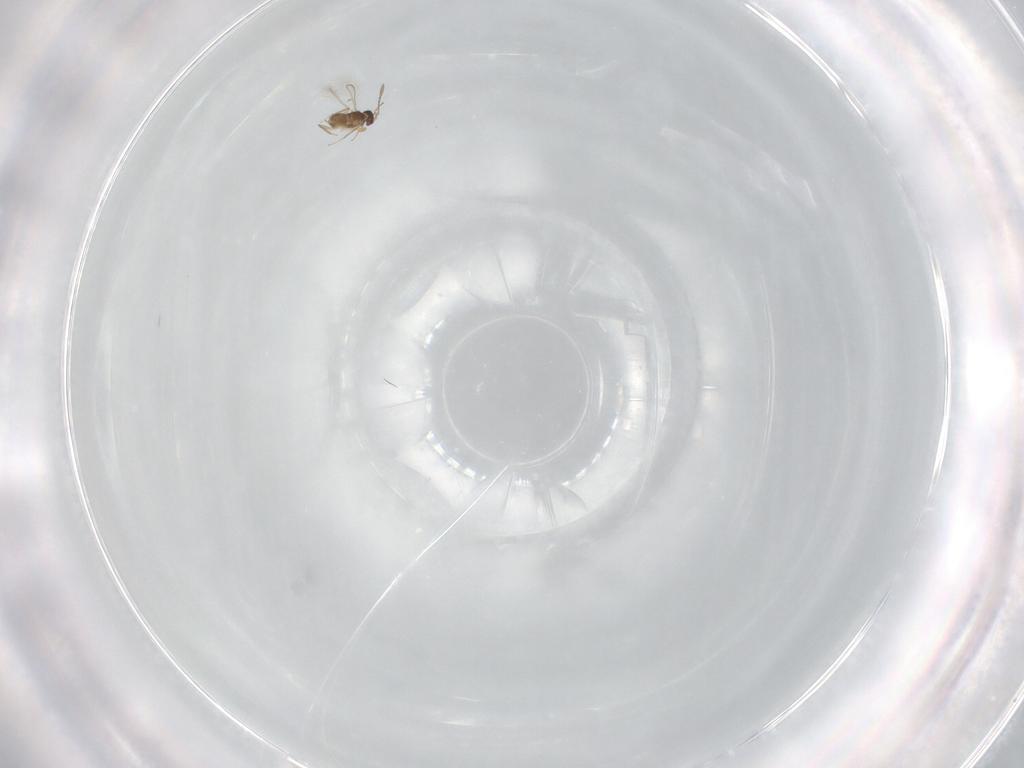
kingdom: Animalia
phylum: Arthropoda
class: Insecta
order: Hymenoptera
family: Mymaridae
